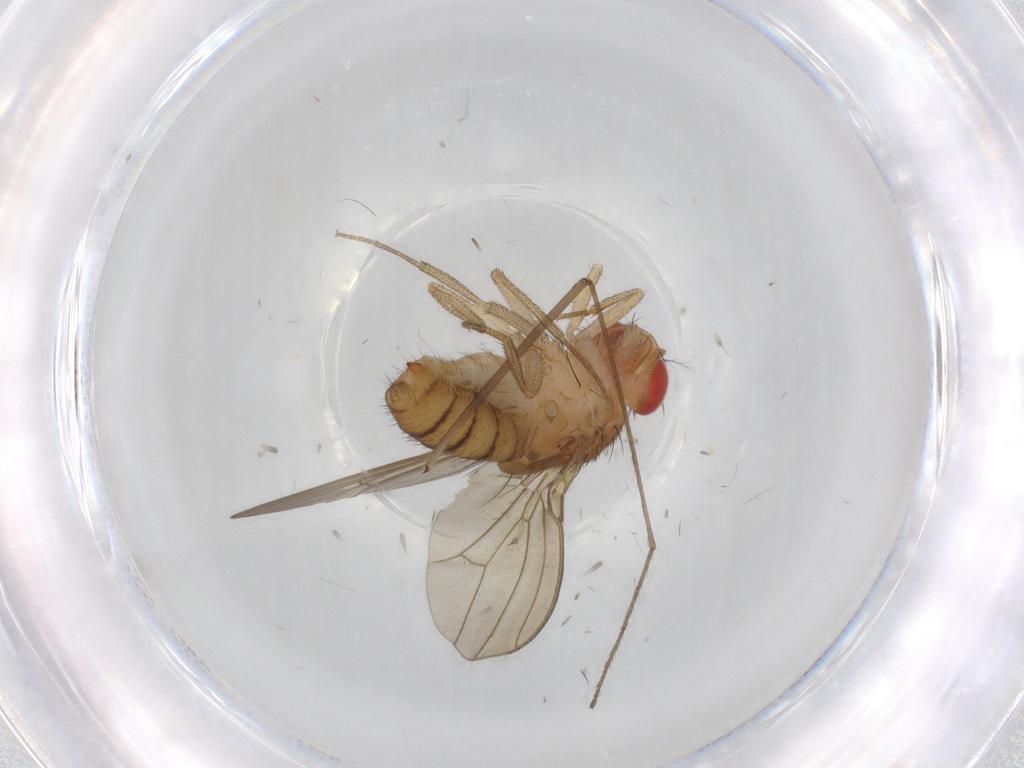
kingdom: Animalia
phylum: Arthropoda
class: Insecta
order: Diptera
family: Drosophilidae
